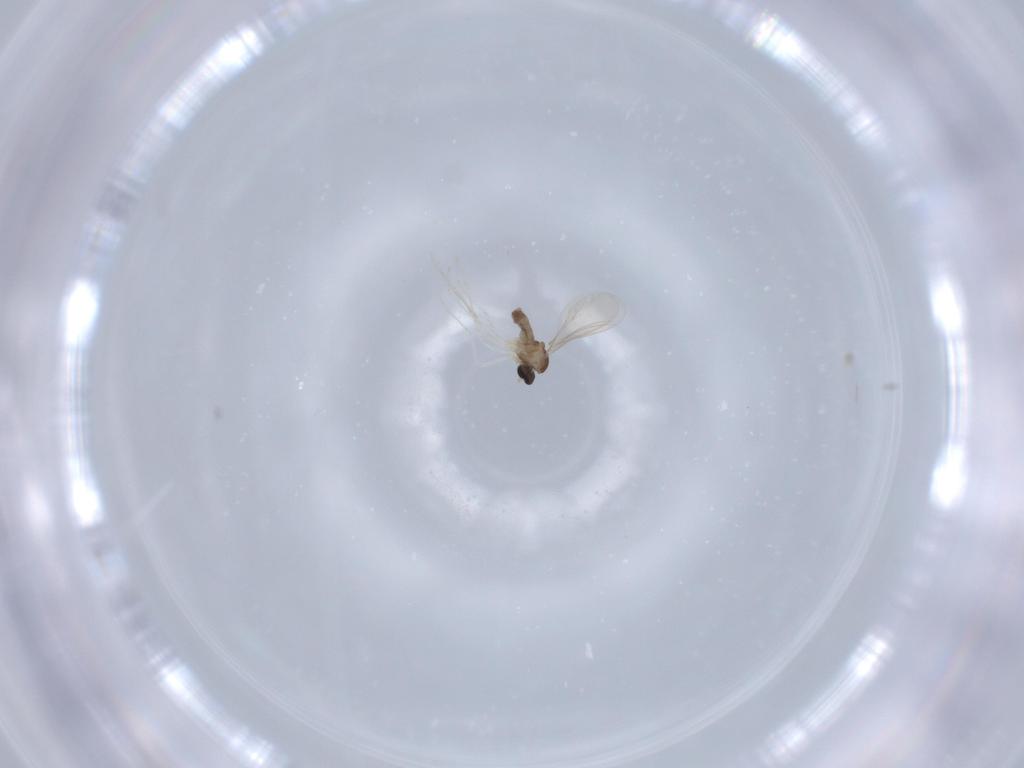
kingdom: Animalia
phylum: Arthropoda
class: Insecta
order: Diptera
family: Cecidomyiidae
